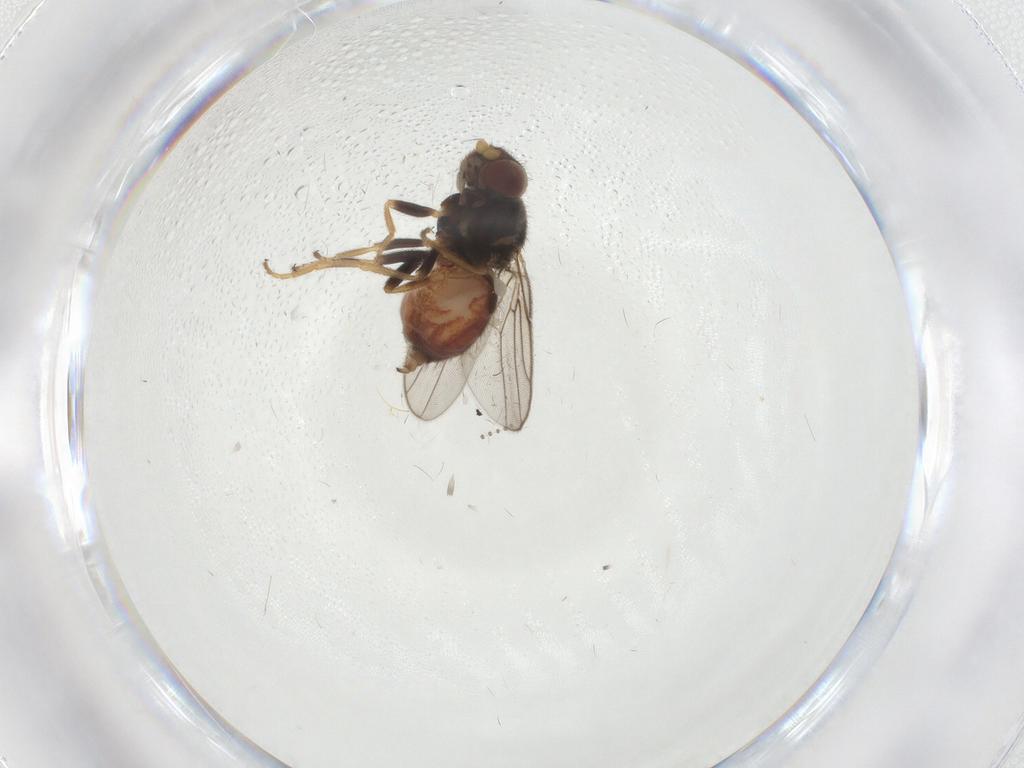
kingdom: Animalia
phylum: Arthropoda
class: Insecta
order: Diptera
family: Chloropidae
